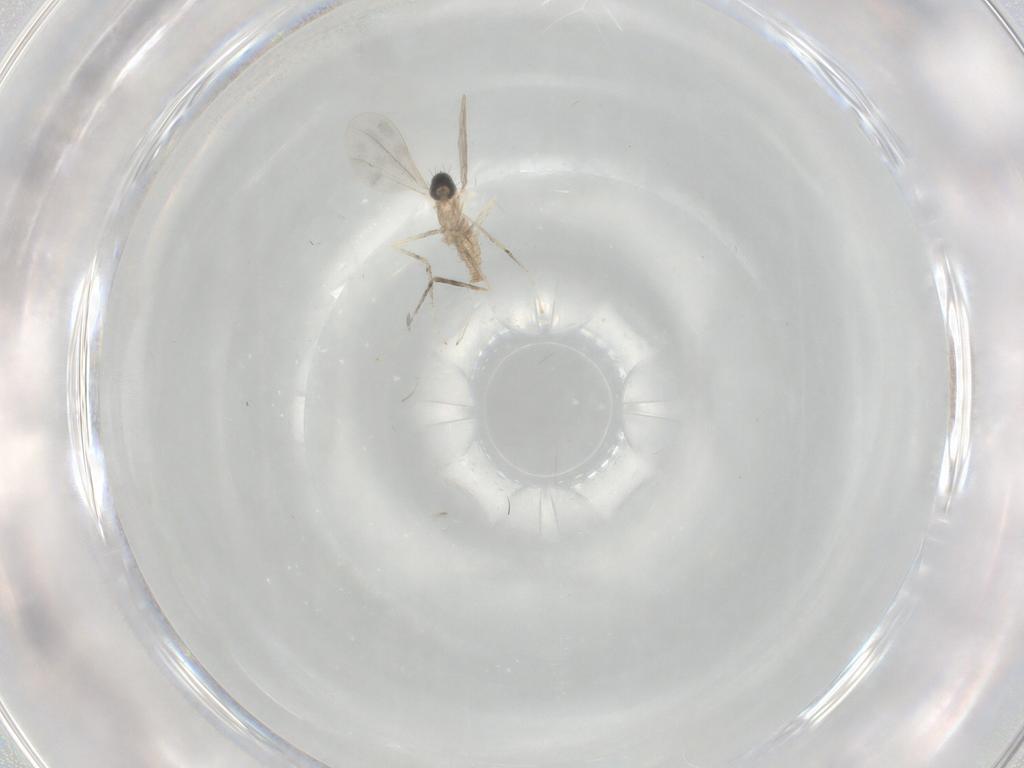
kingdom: Animalia
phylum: Arthropoda
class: Insecta
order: Diptera
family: Cecidomyiidae
